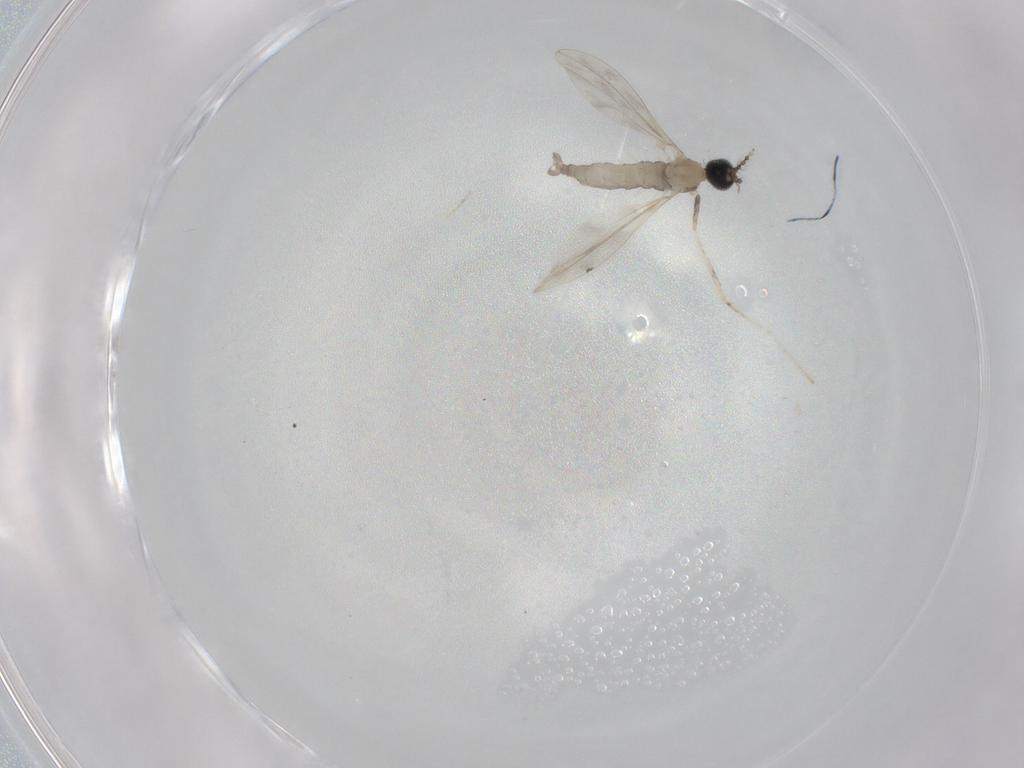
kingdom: Animalia
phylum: Arthropoda
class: Insecta
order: Diptera
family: Cecidomyiidae
